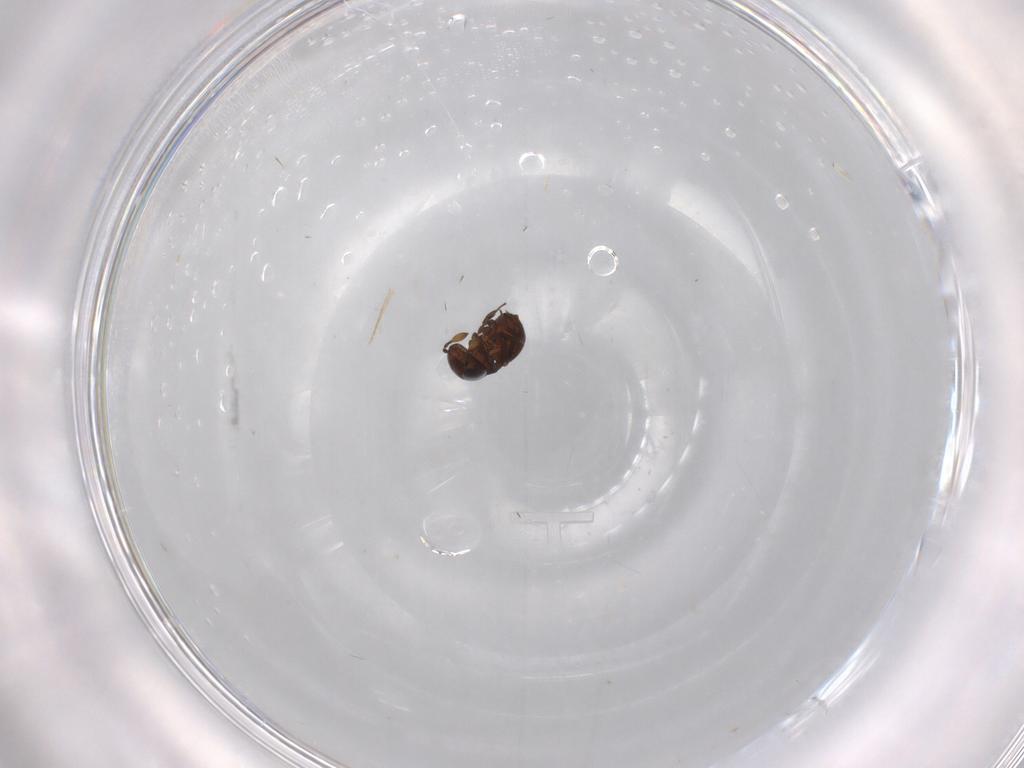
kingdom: Animalia
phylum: Arthropoda
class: Insecta
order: Hymenoptera
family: Scelionidae
